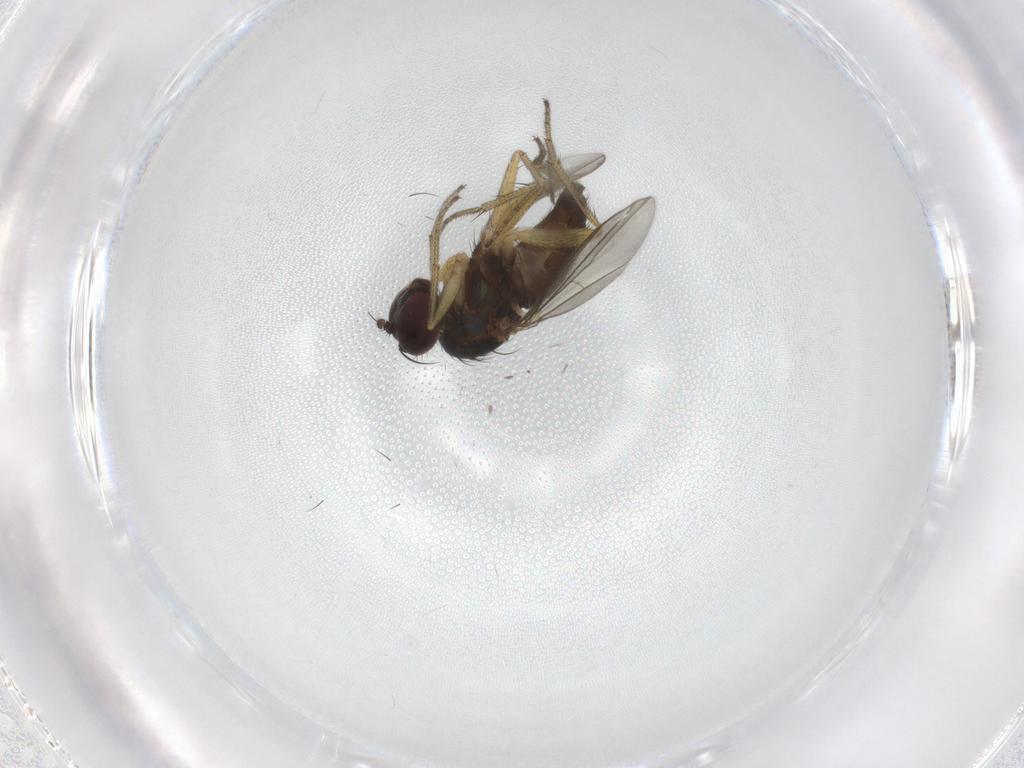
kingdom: Animalia
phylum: Arthropoda
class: Insecta
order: Diptera
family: Dolichopodidae
